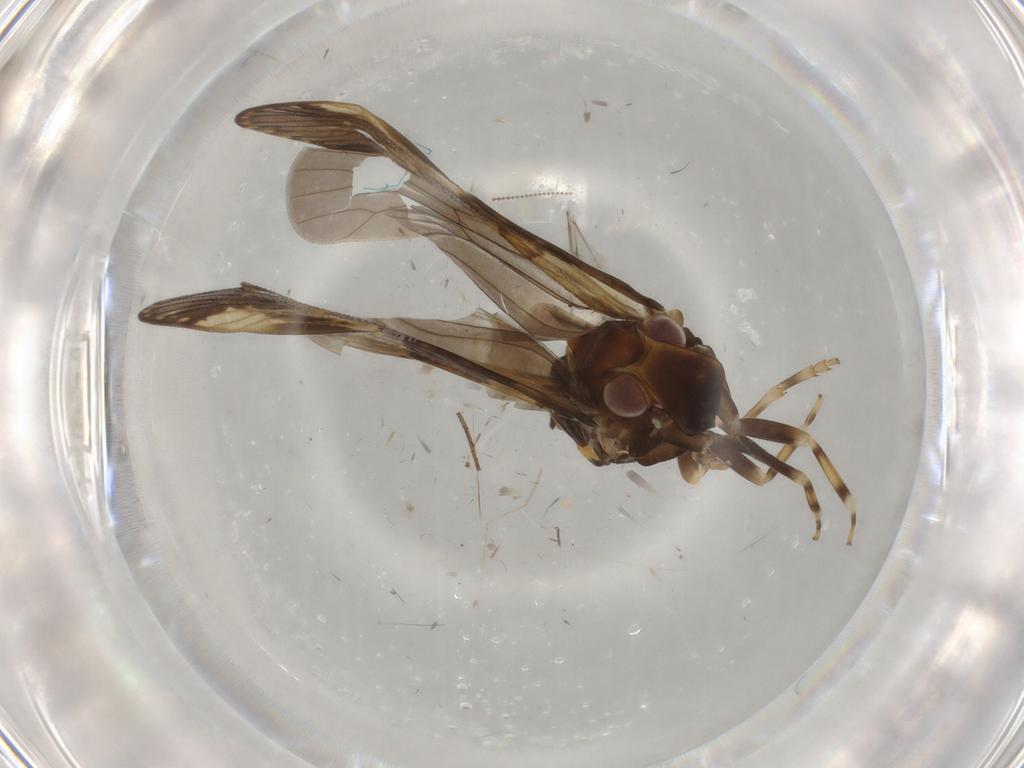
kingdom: Animalia
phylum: Arthropoda
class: Insecta
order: Hemiptera
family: Cixiidae
